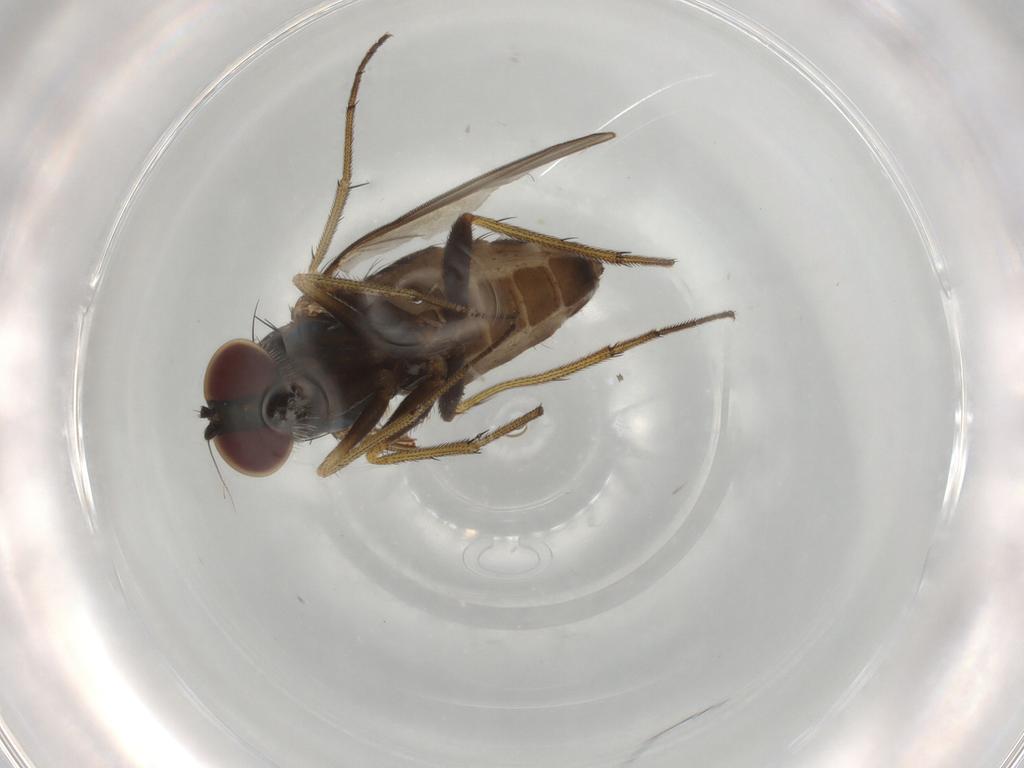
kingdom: Animalia
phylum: Arthropoda
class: Insecta
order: Diptera
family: Dolichopodidae
